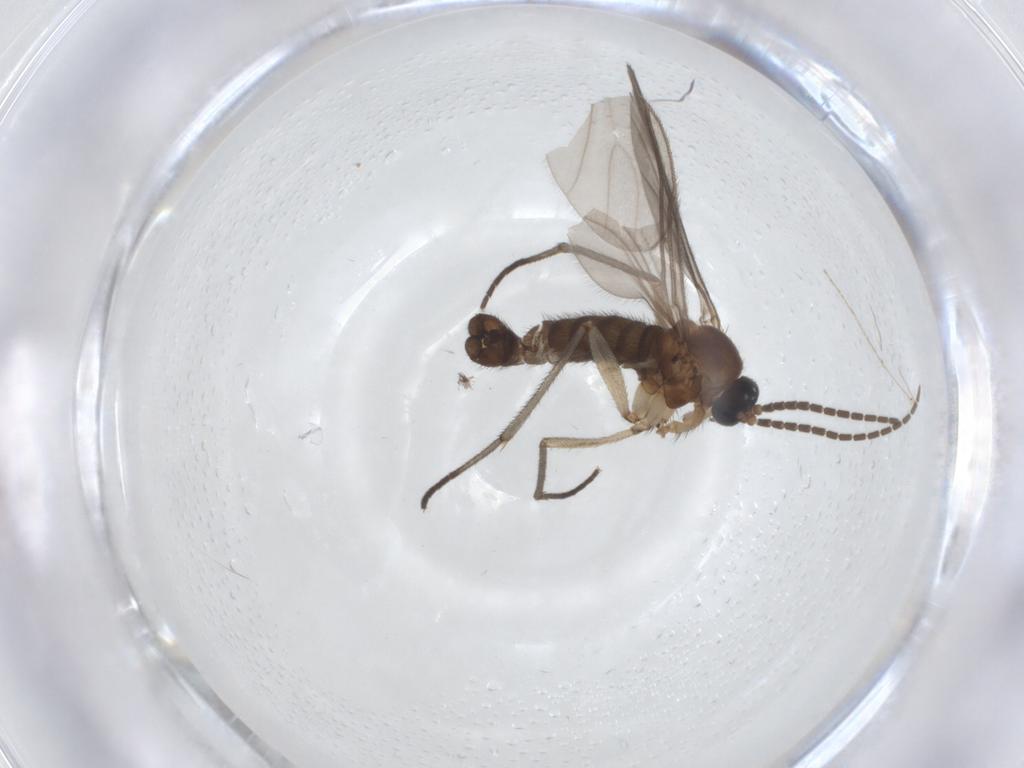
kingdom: Animalia
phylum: Arthropoda
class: Insecta
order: Diptera
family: Sciaridae
